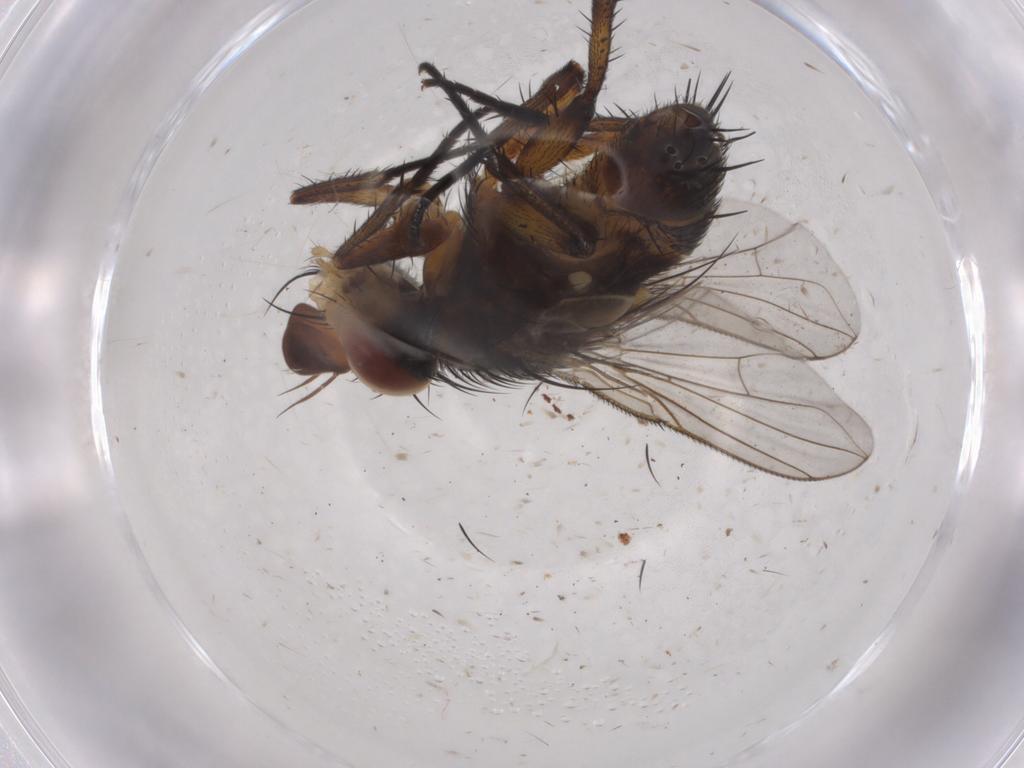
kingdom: Animalia
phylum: Arthropoda
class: Insecta
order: Diptera
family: Tachinidae
